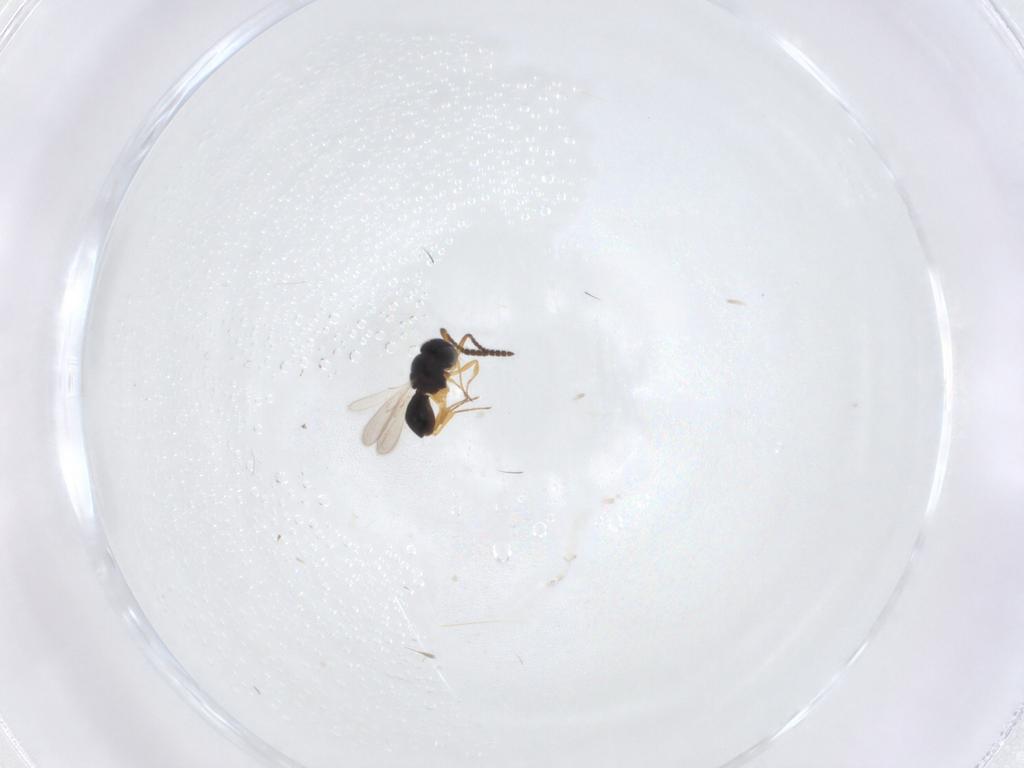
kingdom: Animalia
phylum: Arthropoda
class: Insecta
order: Hymenoptera
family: Scelionidae
